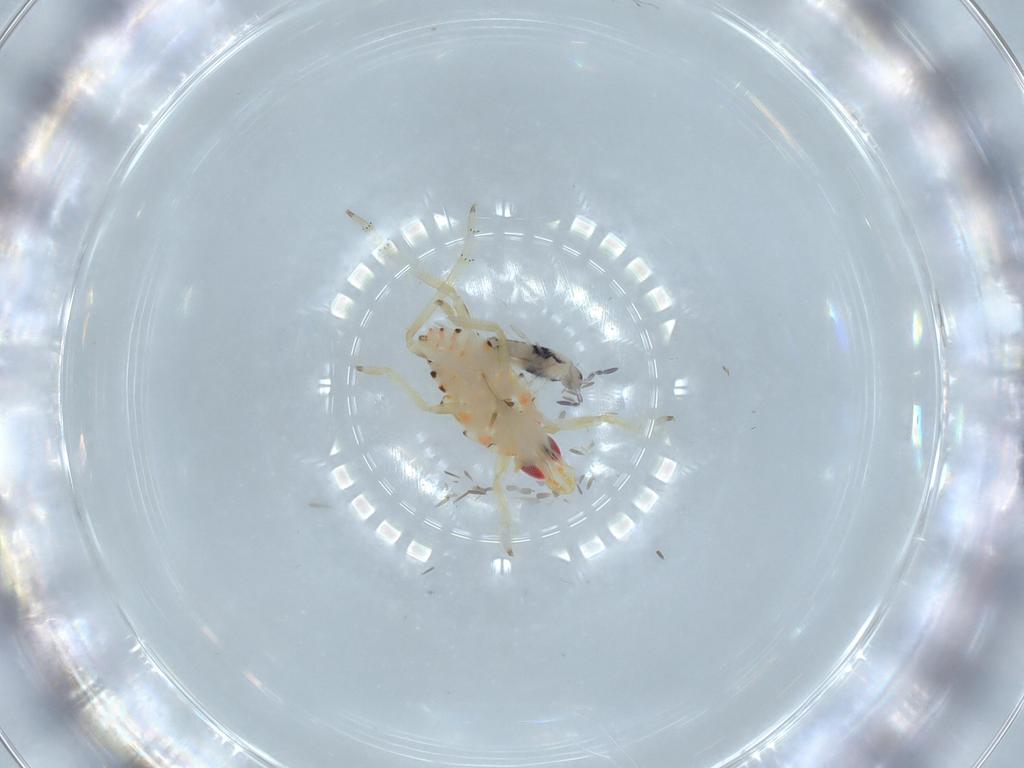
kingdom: Animalia
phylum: Arthropoda
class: Insecta
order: Hemiptera
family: Tropiduchidae
